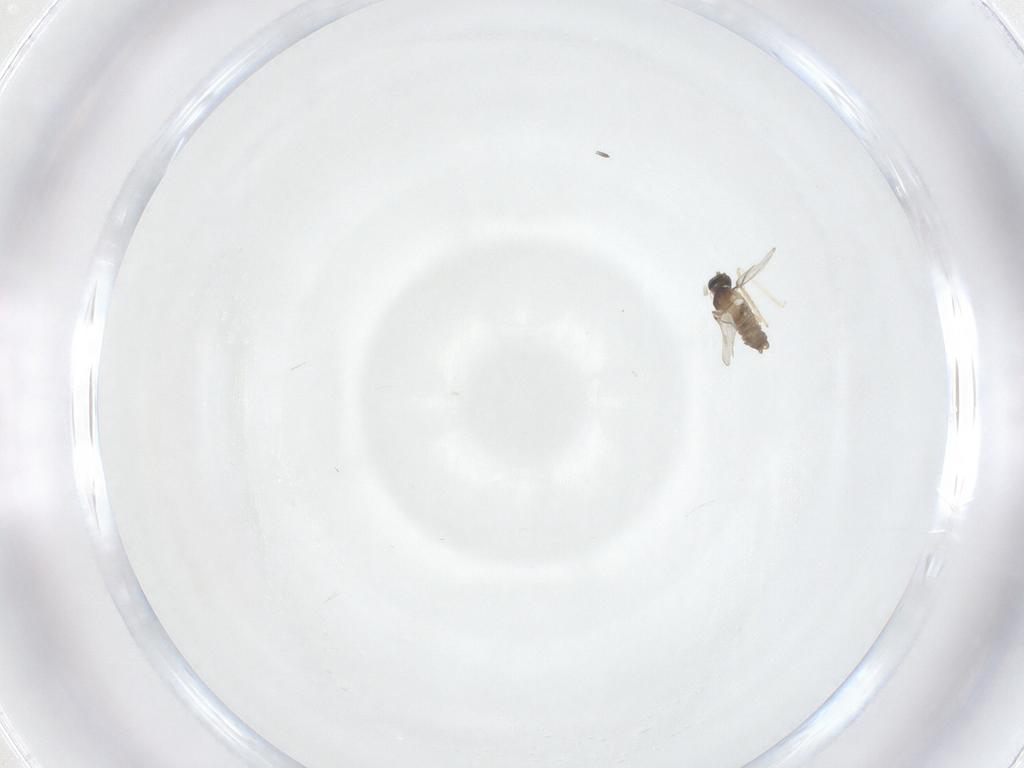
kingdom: Animalia
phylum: Arthropoda
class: Insecta
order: Diptera
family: Cecidomyiidae
